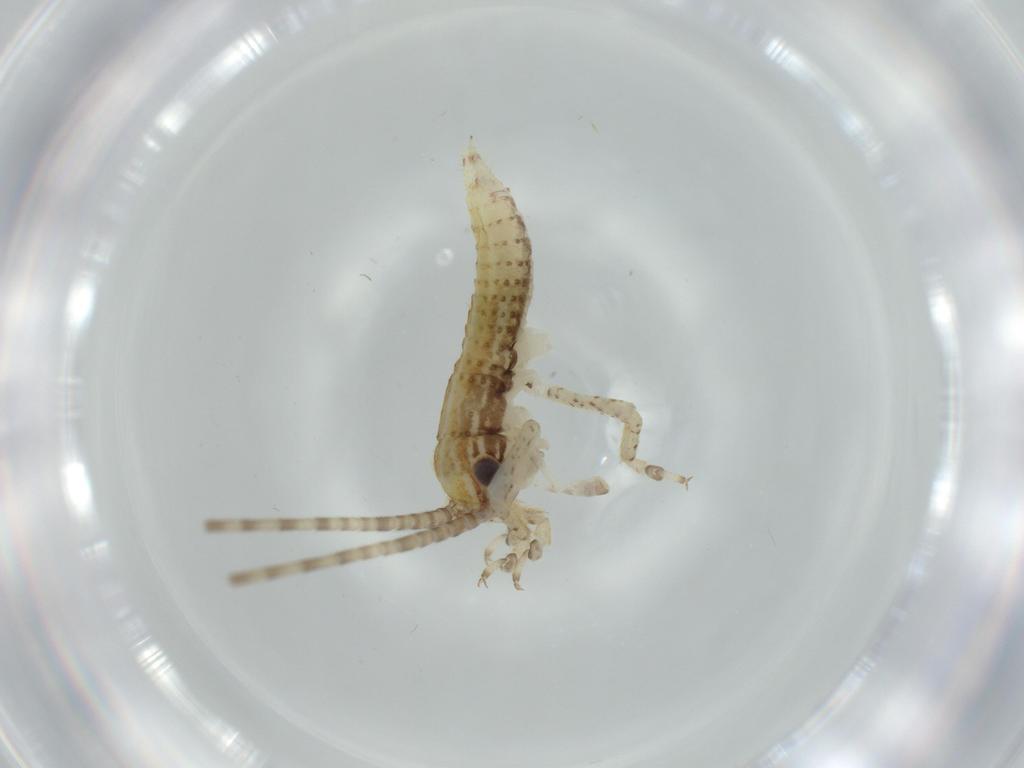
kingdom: Animalia
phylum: Arthropoda
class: Insecta
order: Orthoptera
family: Gryllidae
